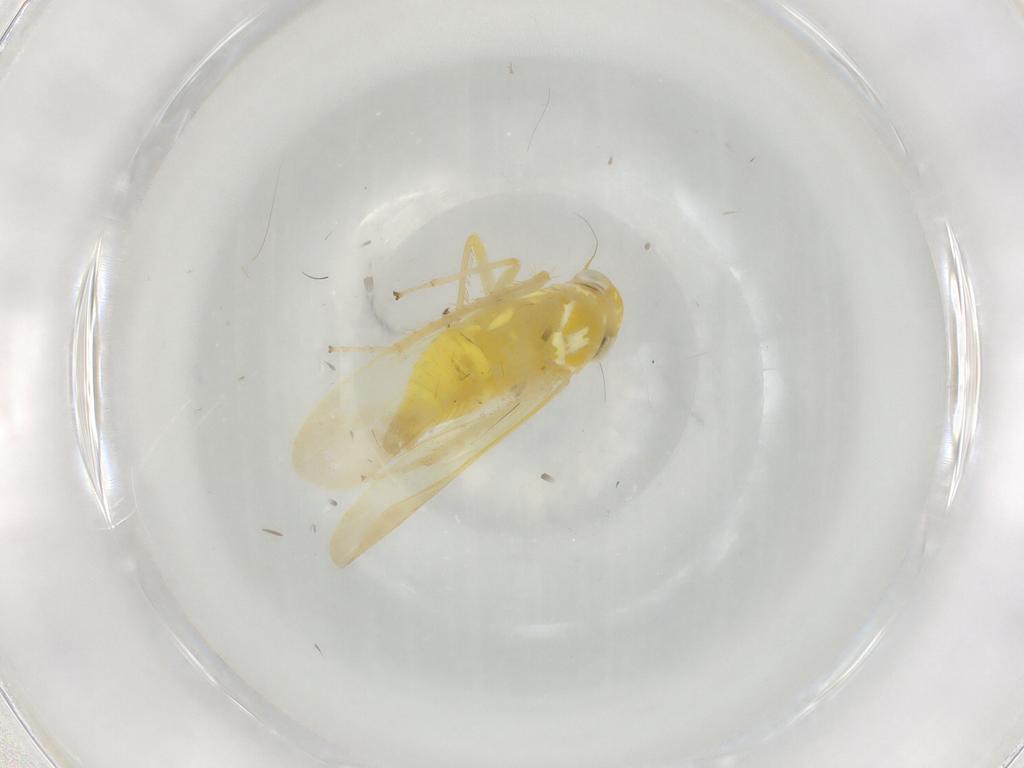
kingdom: Animalia
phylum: Arthropoda
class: Insecta
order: Hemiptera
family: Cicadellidae
